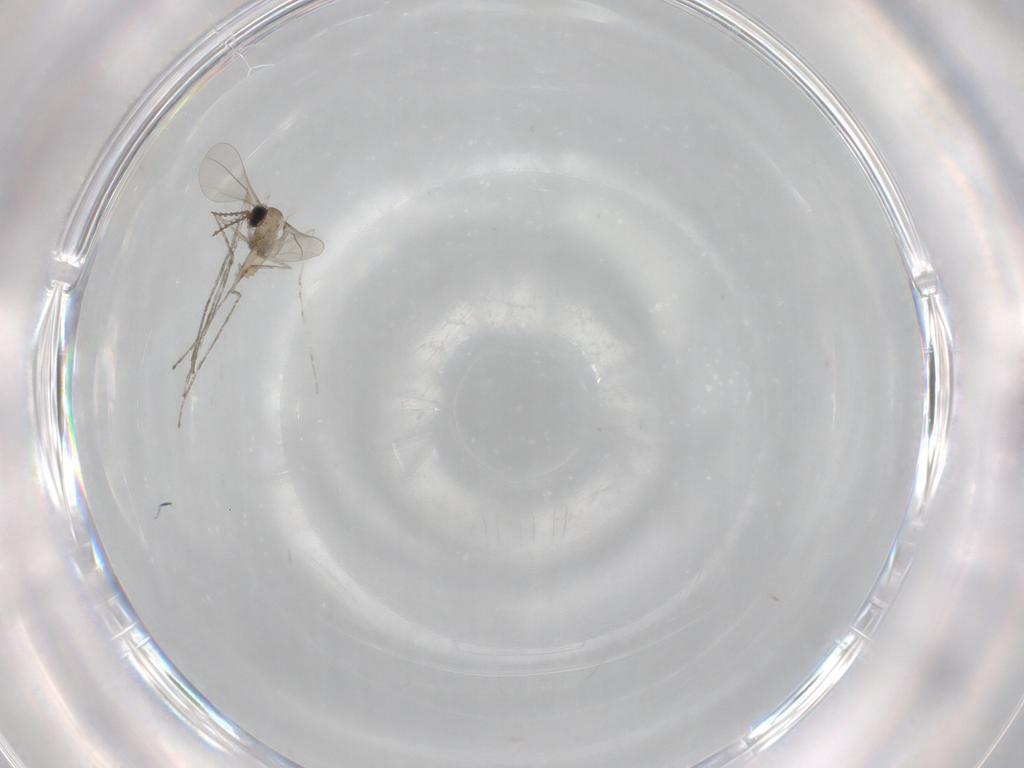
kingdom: Animalia
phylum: Arthropoda
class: Insecta
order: Diptera
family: Cecidomyiidae
